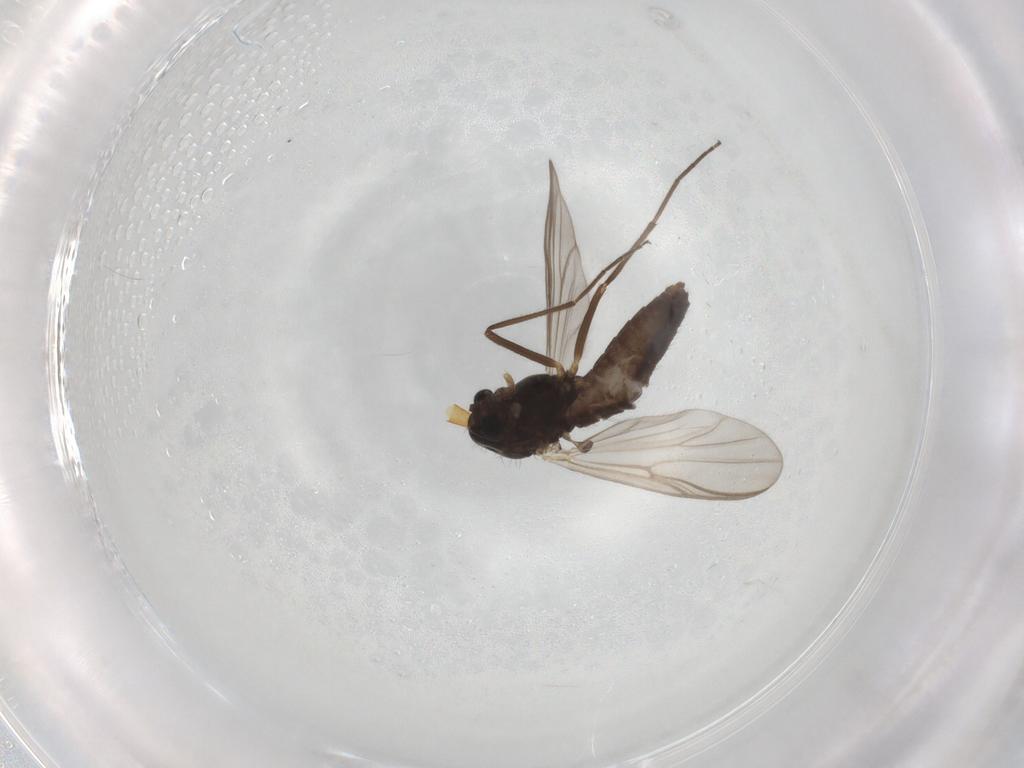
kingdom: Animalia
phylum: Arthropoda
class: Insecta
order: Diptera
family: Chironomidae
